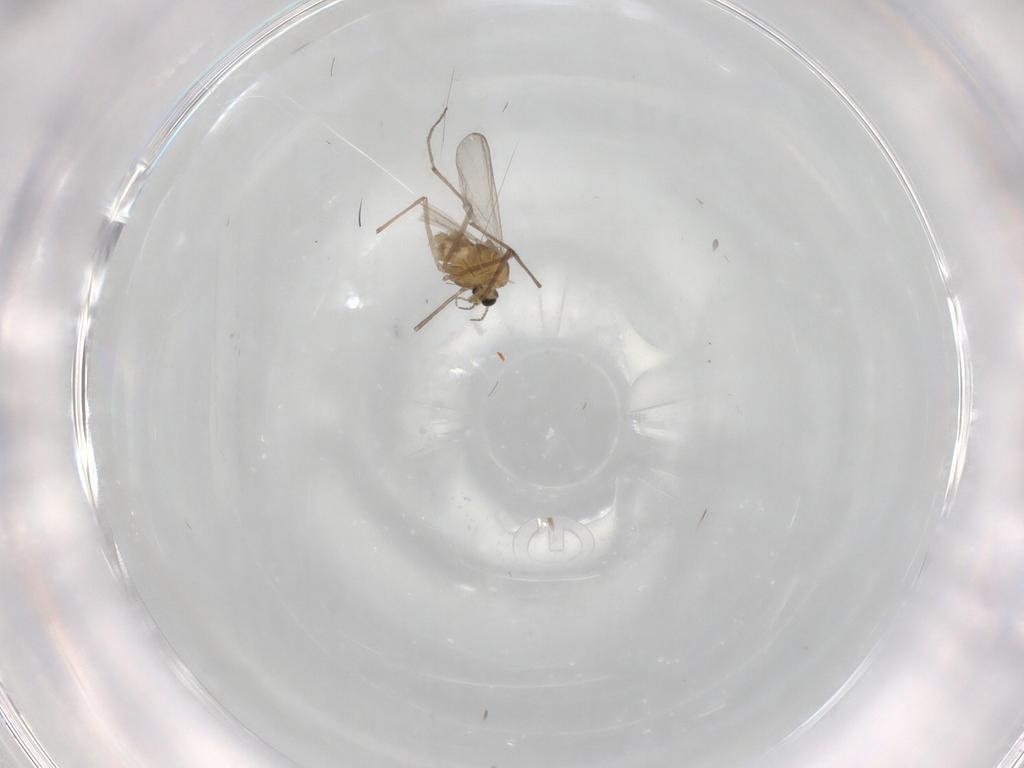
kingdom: Animalia
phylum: Arthropoda
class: Insecta
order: Diptera
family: Chironomidae
